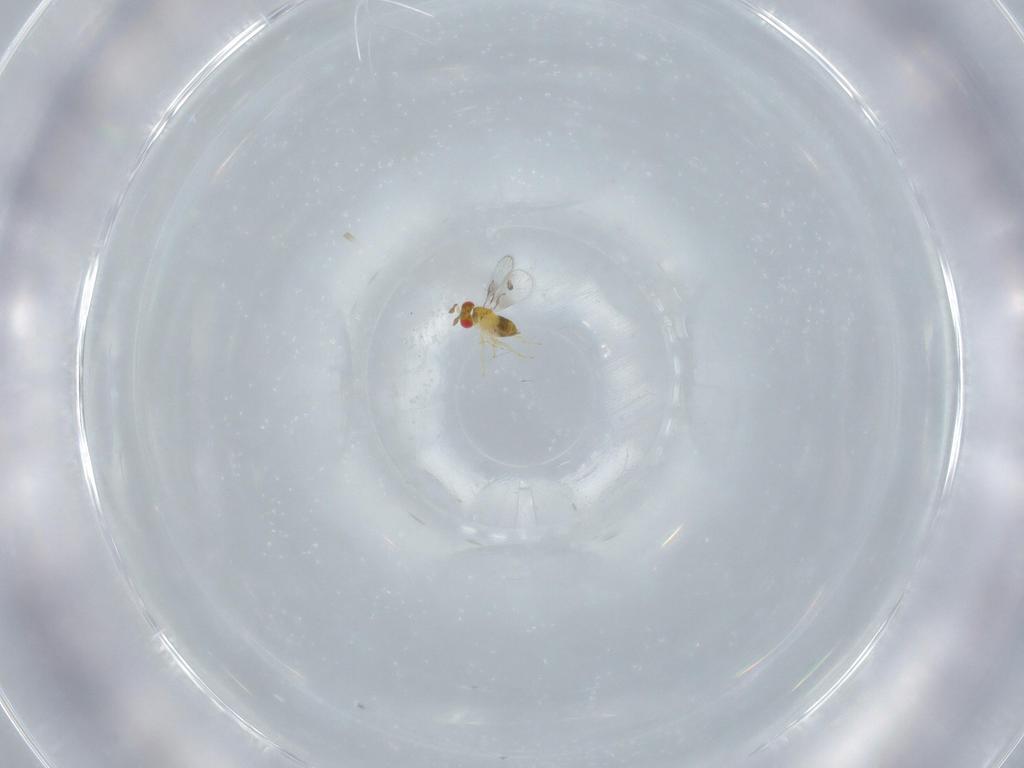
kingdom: Animalia
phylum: Arthropoda
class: Insecta
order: Hymenoptera
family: Trichogrammatidae
